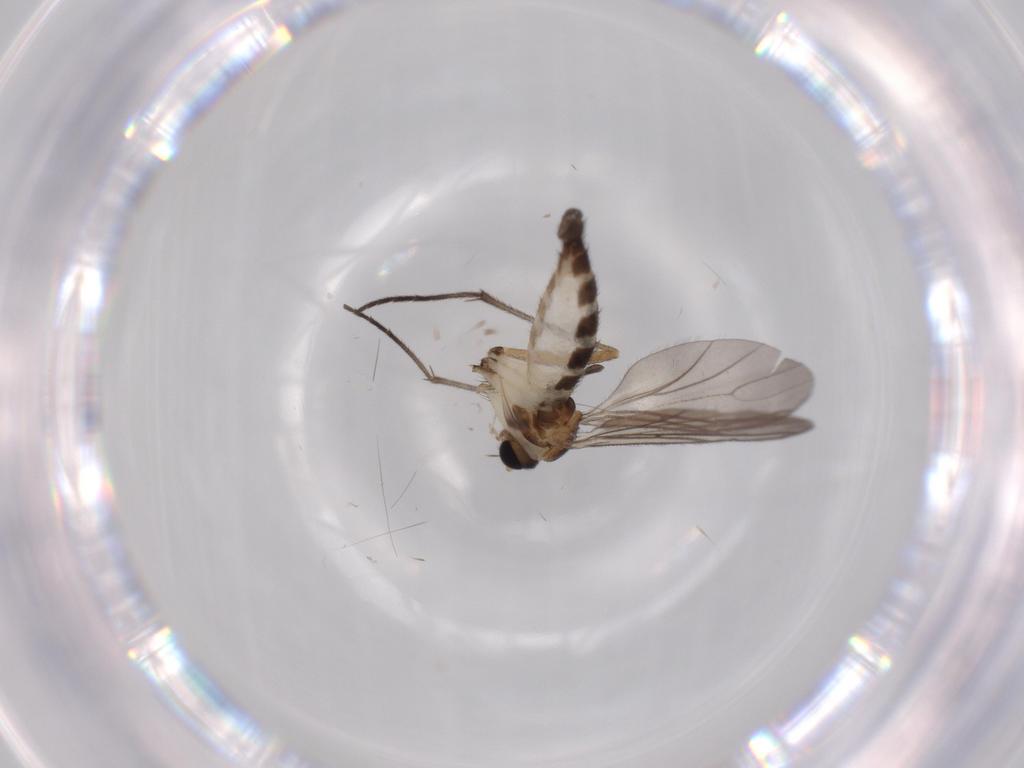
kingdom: Animalia
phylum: Arthropoda
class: Insecta
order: Diptera
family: Sciaridae
